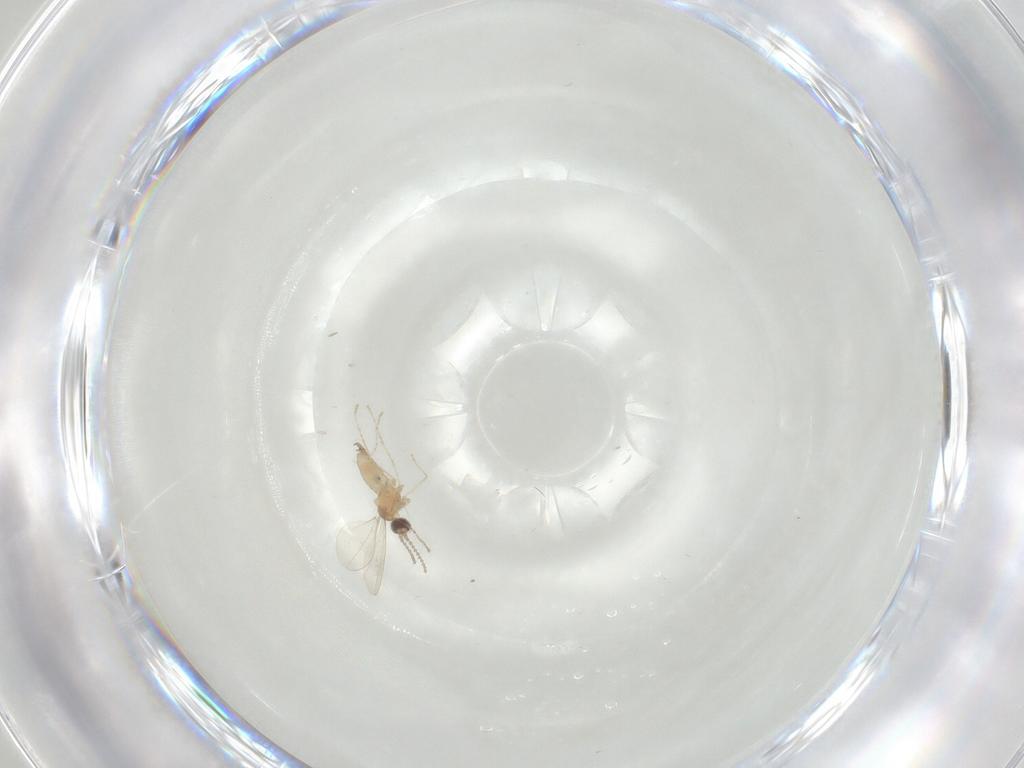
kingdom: Animalia
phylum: Arthropoda
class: Insecta
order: Diptera
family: Cecidomyiidae
